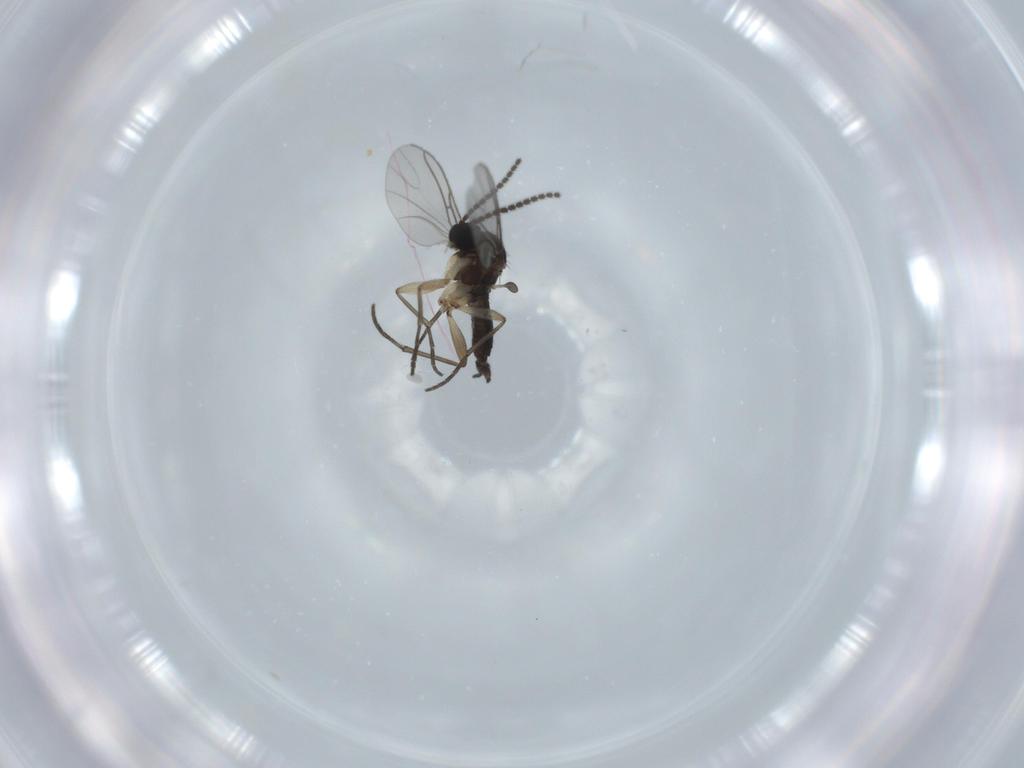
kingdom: Animalia
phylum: Arthropoda
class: Insecta
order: Diptera
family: Sciaridae
